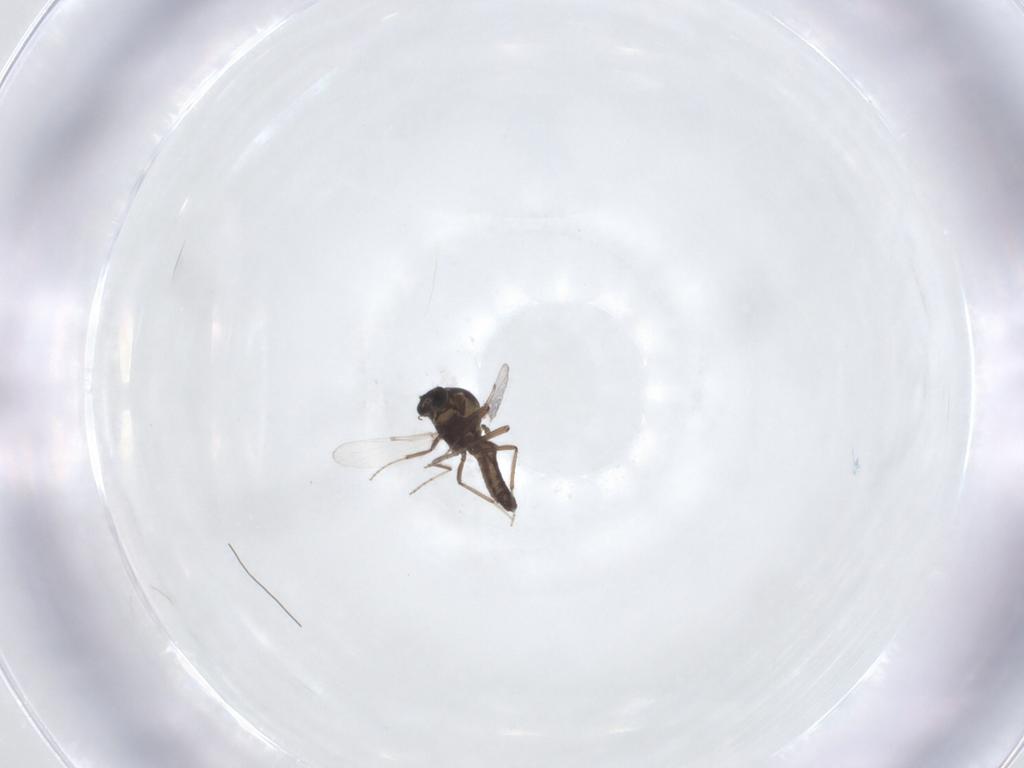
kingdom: Animalia
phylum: Arthropoda
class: Insecta
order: Diptera
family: Ceratopogonidae
